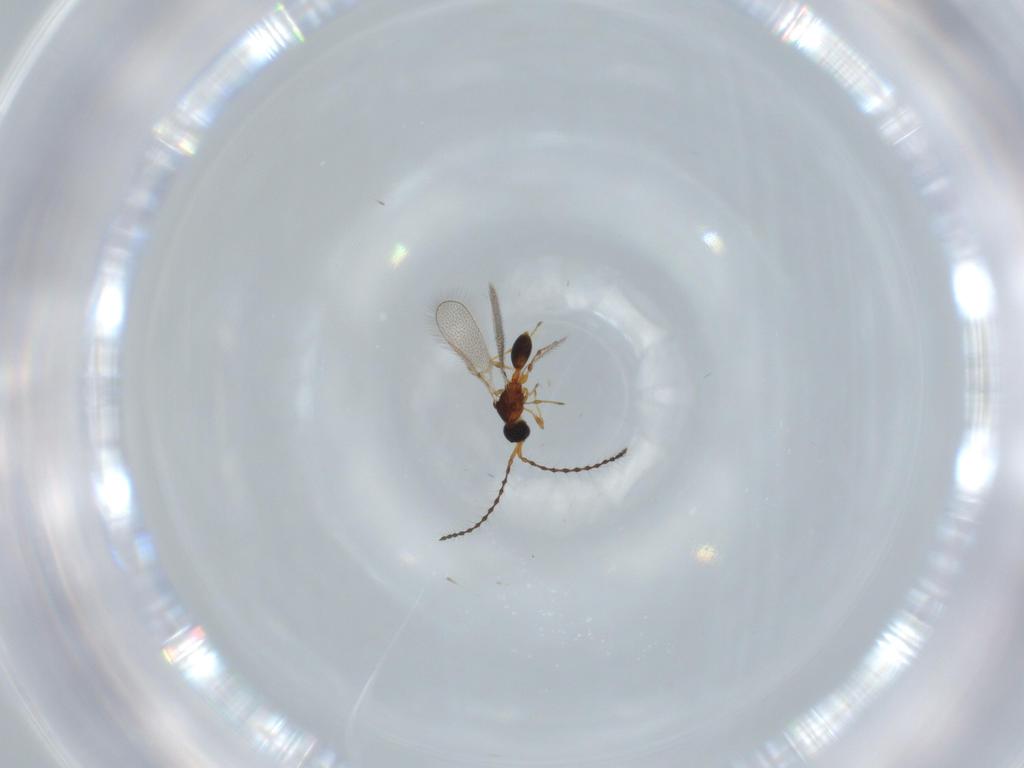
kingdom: Animalia
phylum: Arthropoda
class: Insecta
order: Hymenoptera
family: Diapriidae
